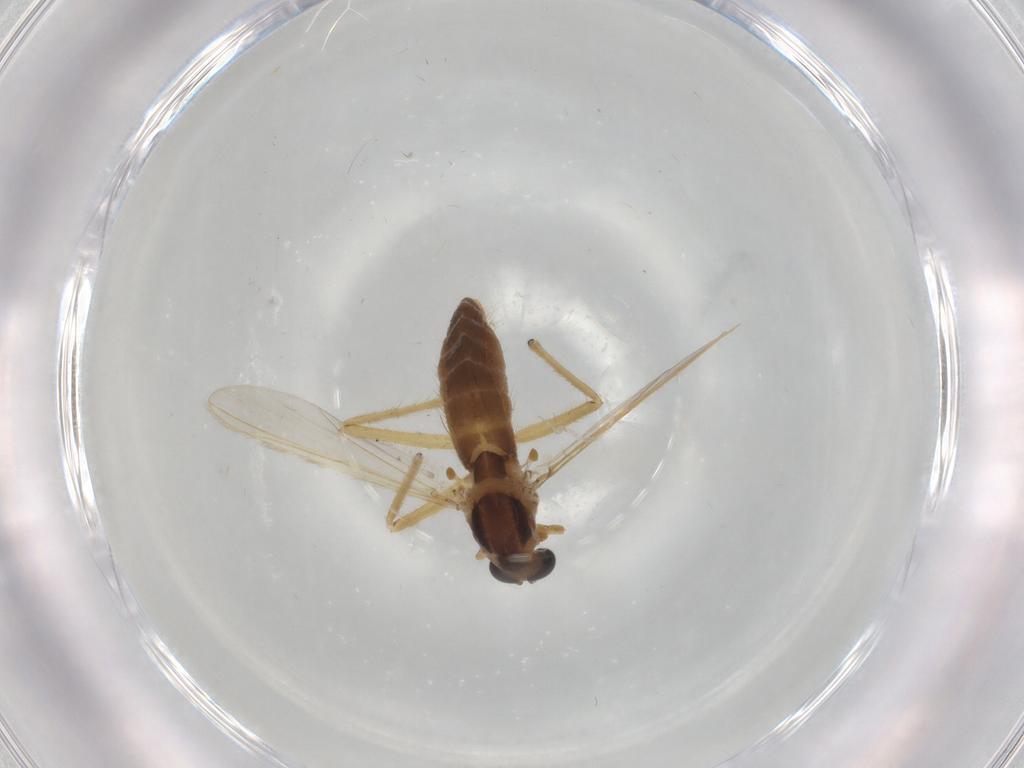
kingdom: Animalia
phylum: Arthropoda
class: Insecta
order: Diptera
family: Chironomidae
